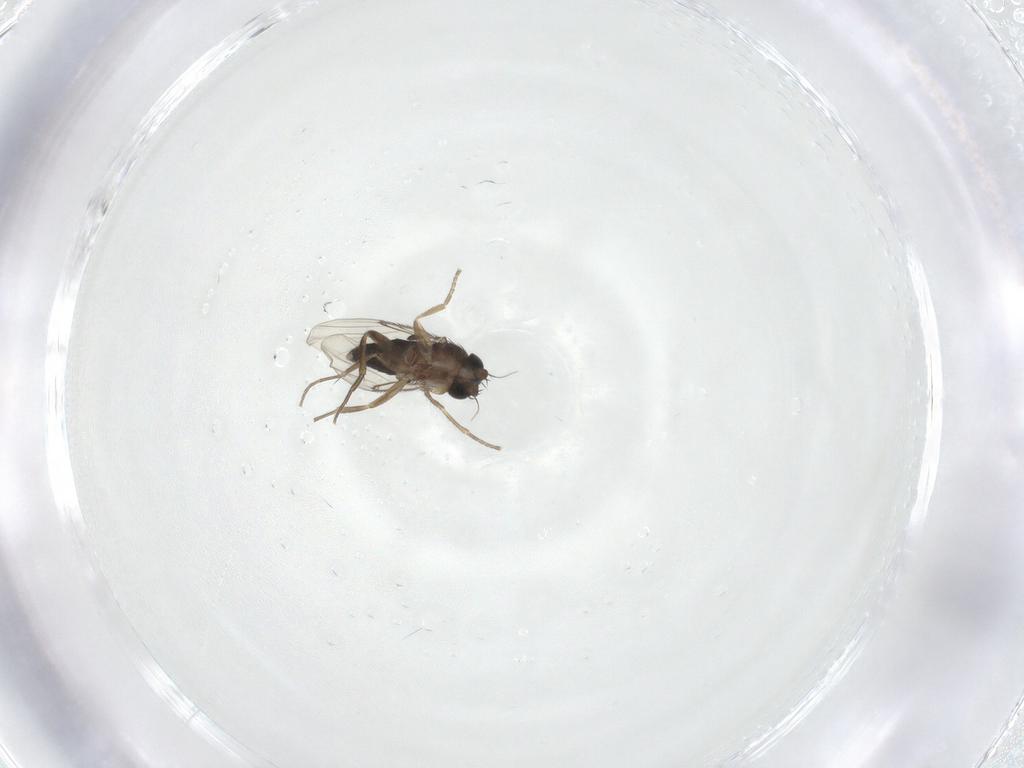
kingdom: Animalia
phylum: Arthropoda
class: Insecta
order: Diptera
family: Phoridae
